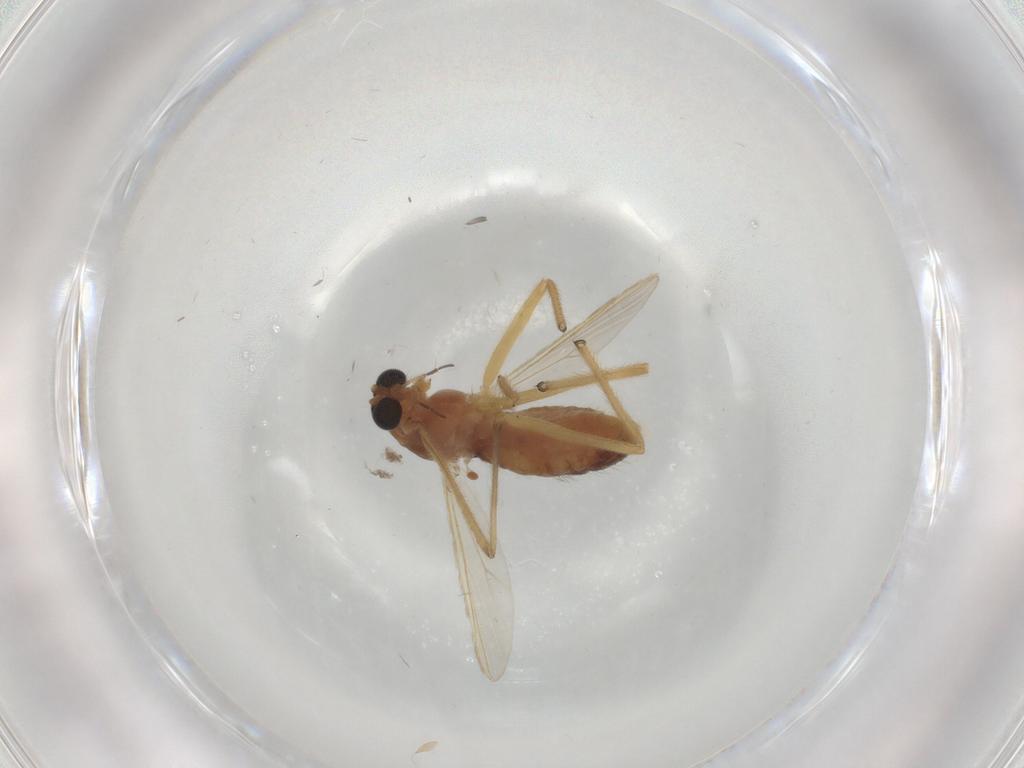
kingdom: Animalia
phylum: Arthropoda
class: Insecta
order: Diptera
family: Chironomidae
